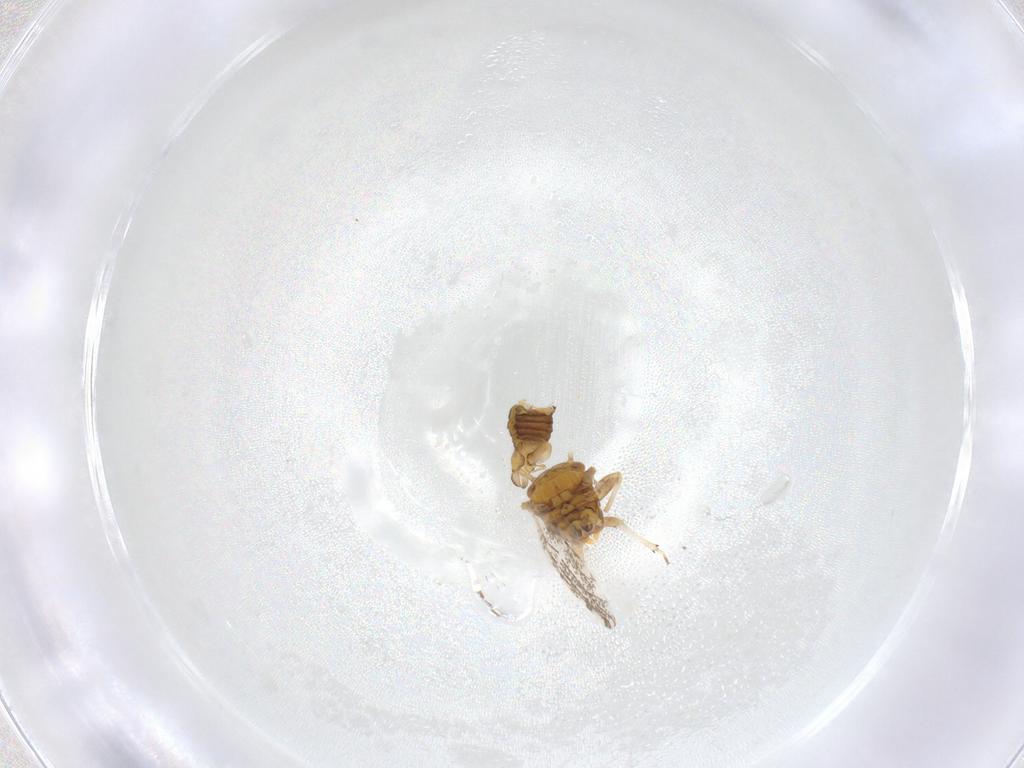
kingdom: Animalia
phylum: Arthropoda
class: Insecta
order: Hemiptera
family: Psylloidea_incertae_sedis
